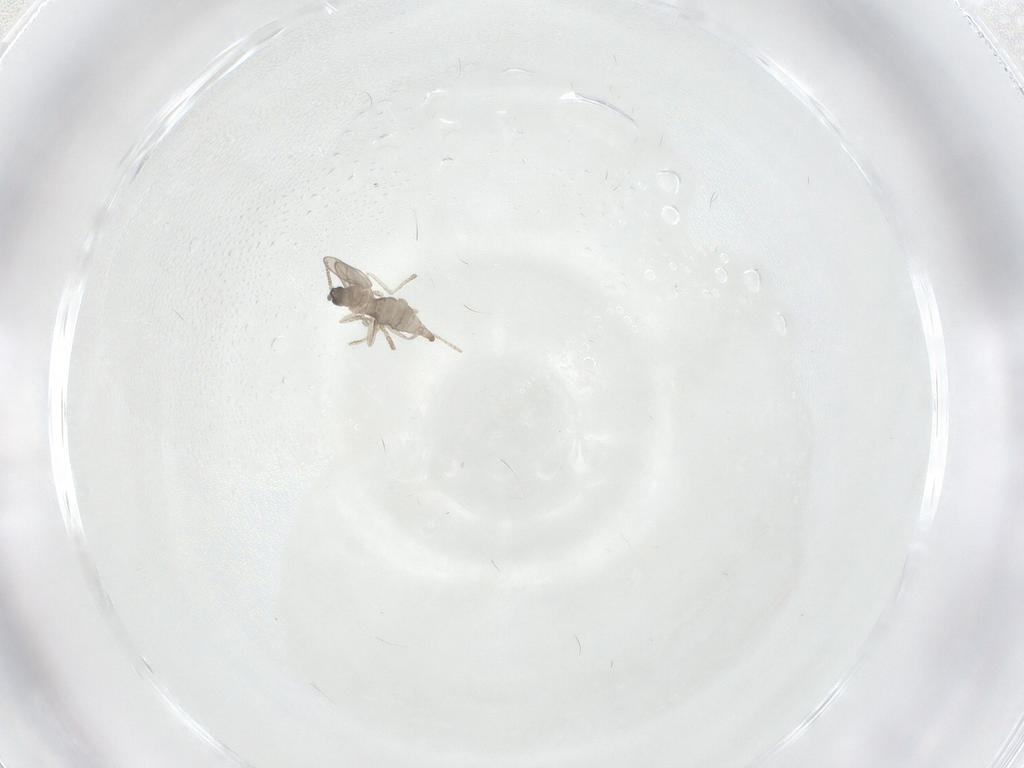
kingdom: Animalia
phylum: Arthropoda
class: Insecta
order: Diptera
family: Cecidomyiidae
